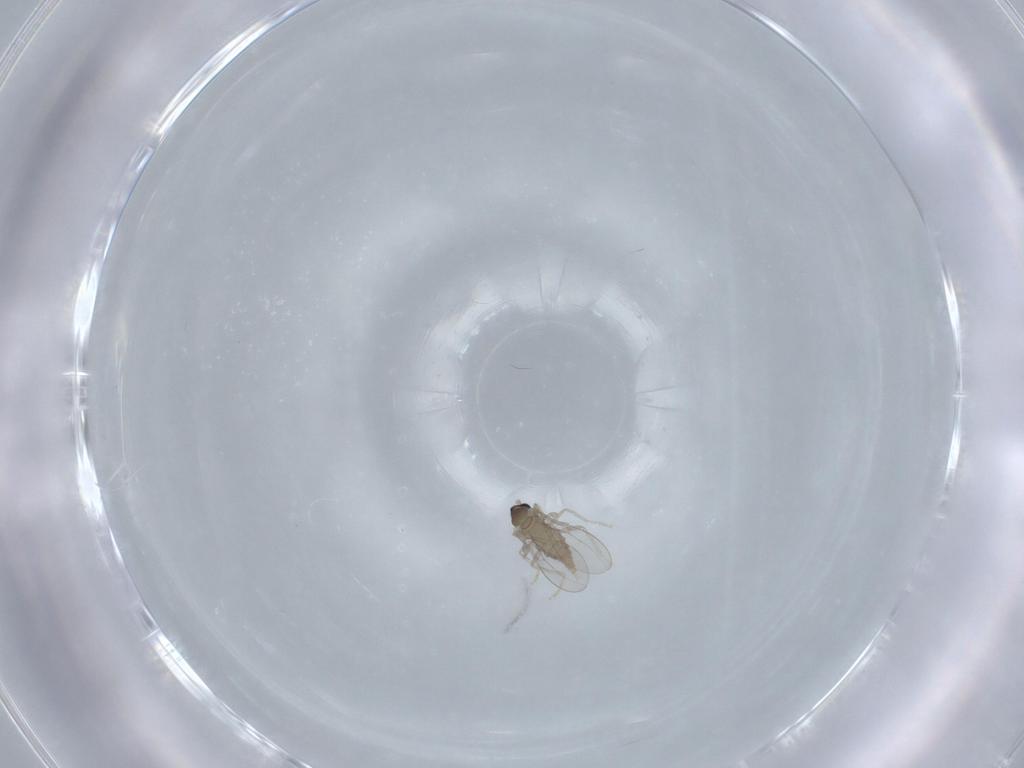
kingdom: Animalia
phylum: Arthropoda
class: Insecta
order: Diptera
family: Cecidomyiidae
